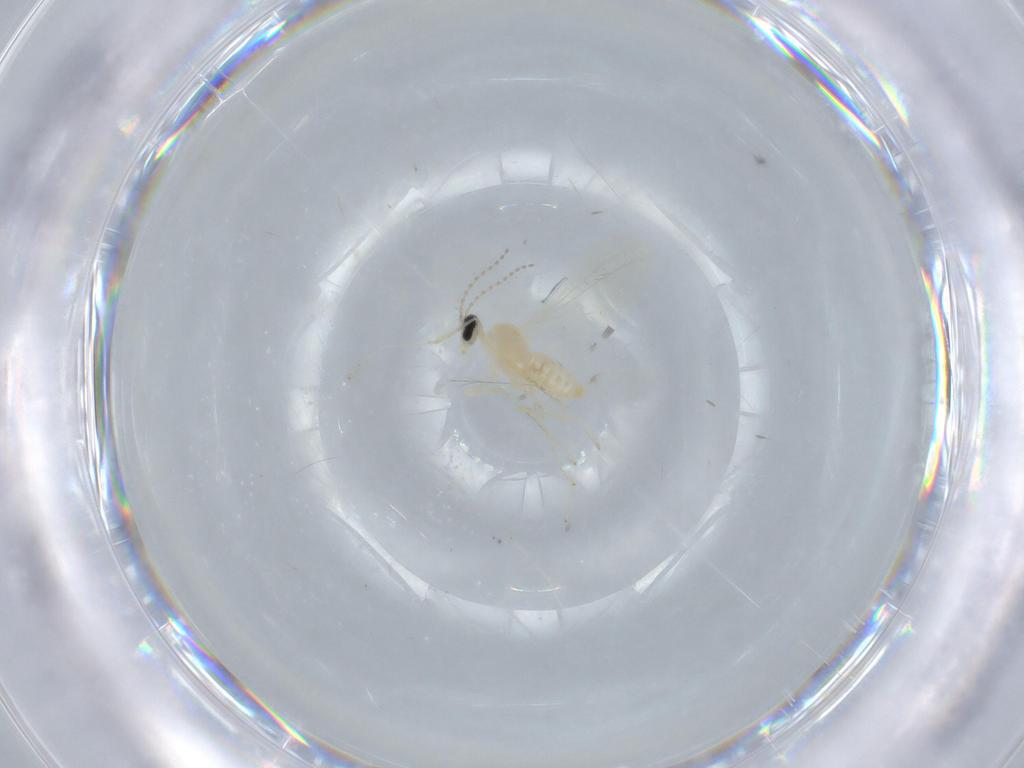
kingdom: Animalia
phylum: Arthropoda
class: Insecta
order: Diptera
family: Cecidomyiidae
